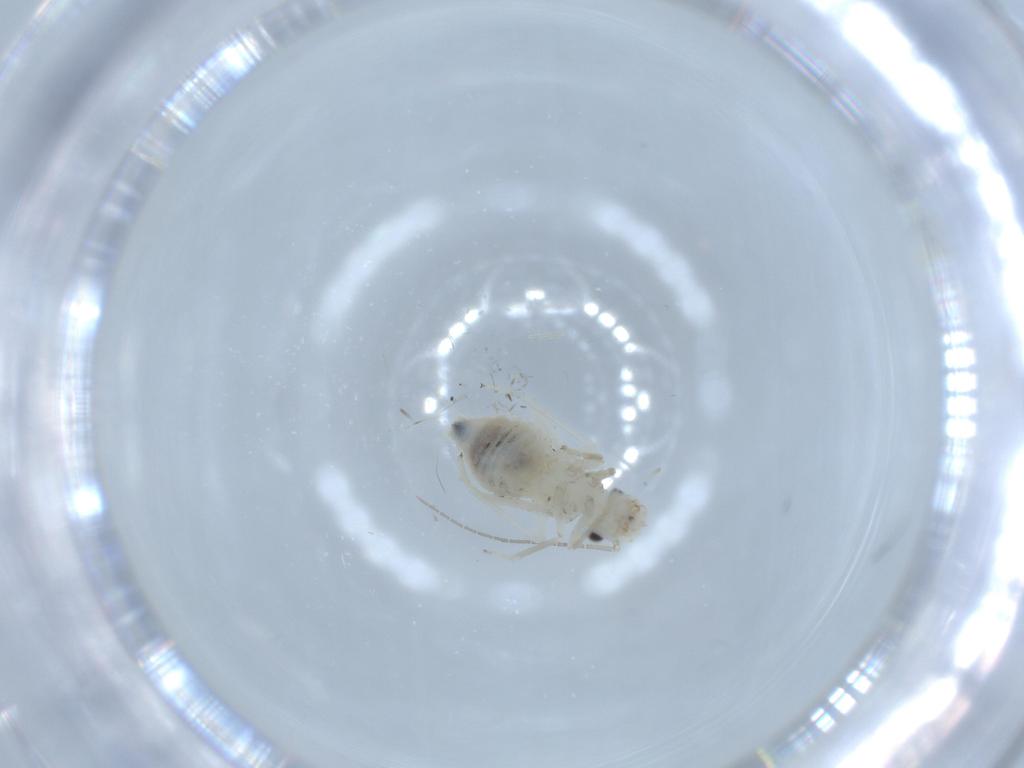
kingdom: Animalia
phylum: Arthropoda
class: Insecta
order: Psocodea
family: Caeciliusidae
